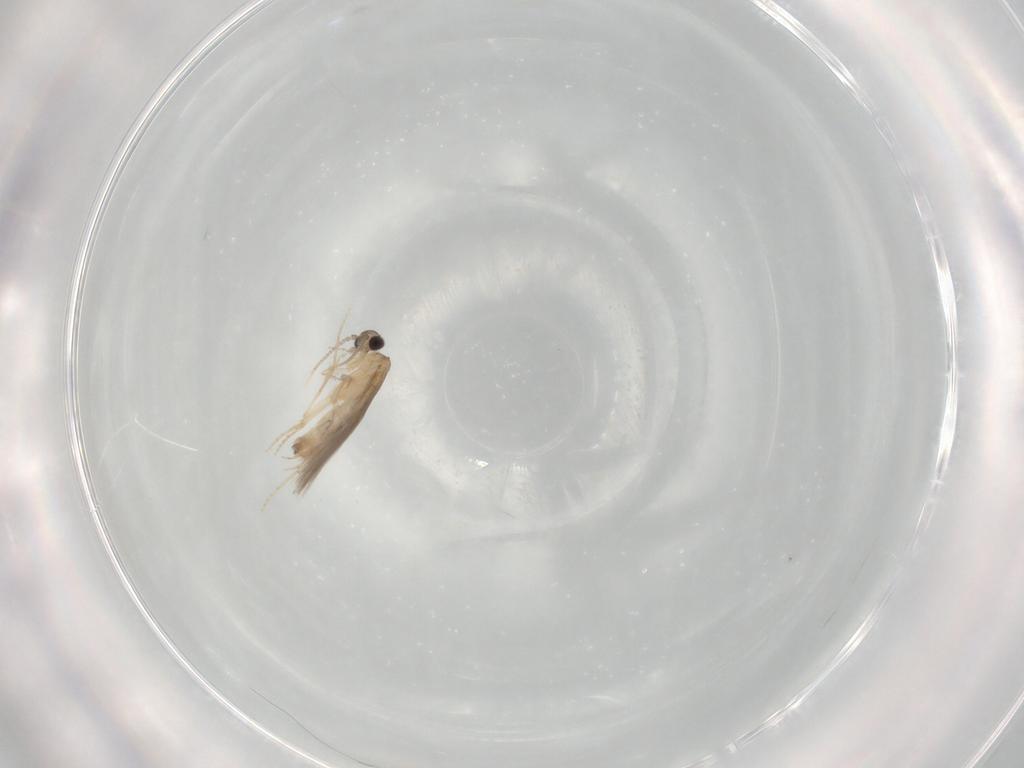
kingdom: Animalia
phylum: Arthropoda
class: Insecta
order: Trichoptera
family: Hydroptilidae
